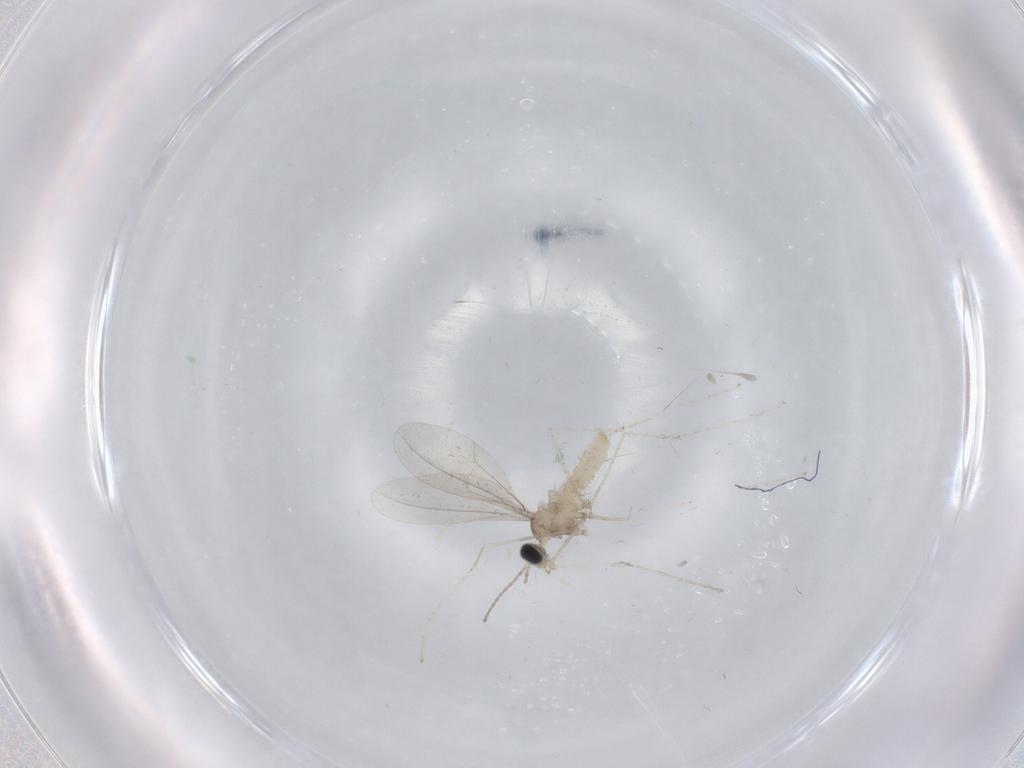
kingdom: Animalia
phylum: Arthropoda
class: Insecta
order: Diptera
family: Cecidomyiidae
